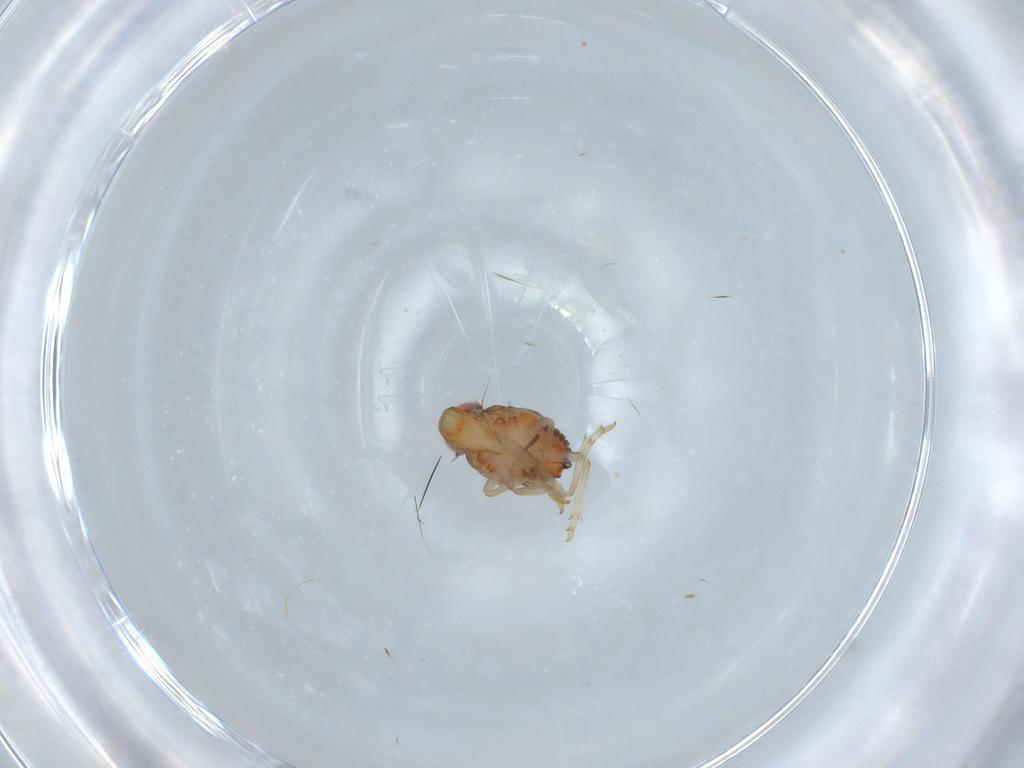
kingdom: Animalia
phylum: Arthropoda
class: Insecta
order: Hemiptera
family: Issidae
